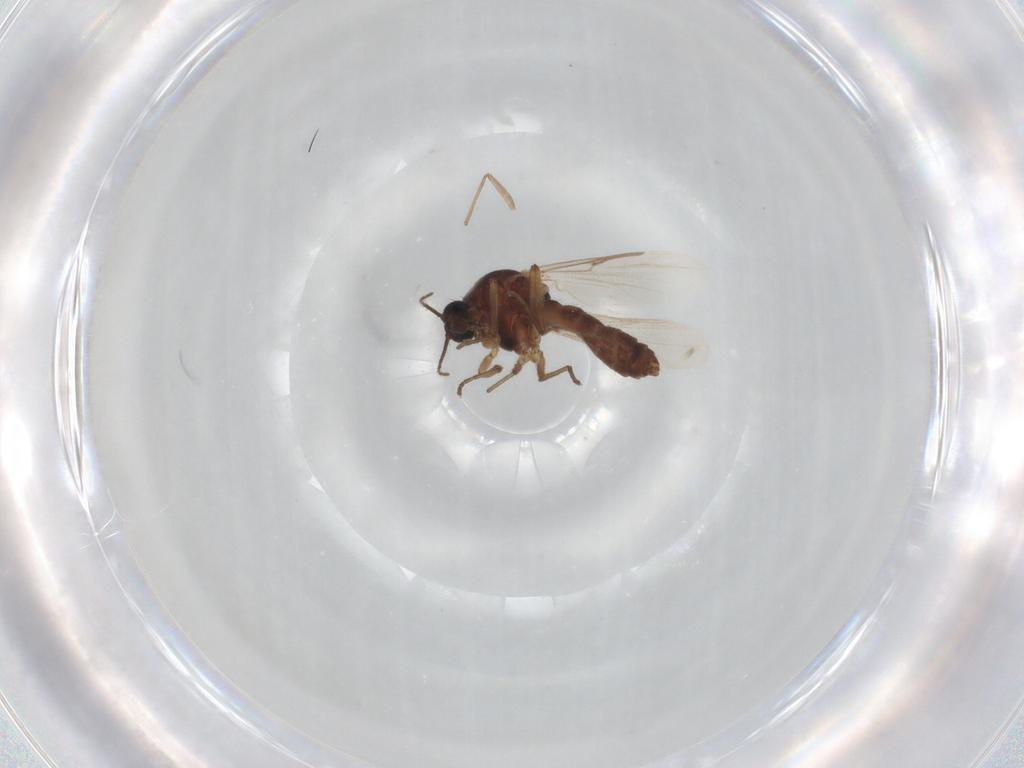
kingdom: Animalia
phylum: Arthropoda
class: Insecta
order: Diptera
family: Ceratopogonidae
